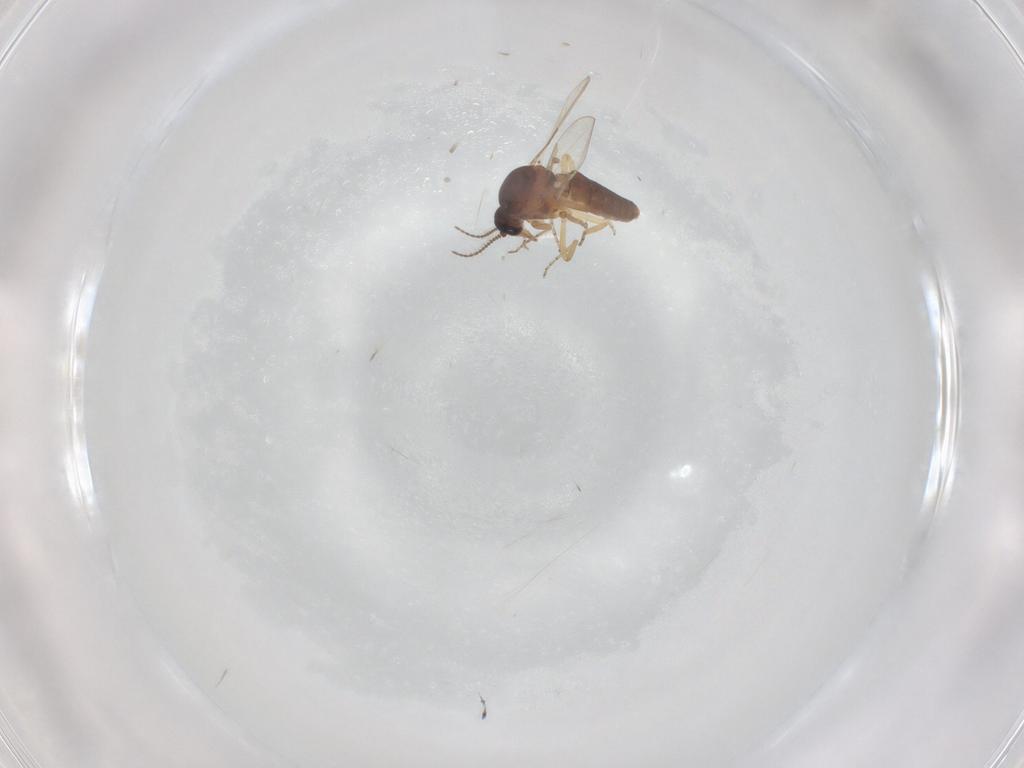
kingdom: Animalia
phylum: Arthropoda
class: Insecta
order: Diptera
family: Ceratopogonidae
